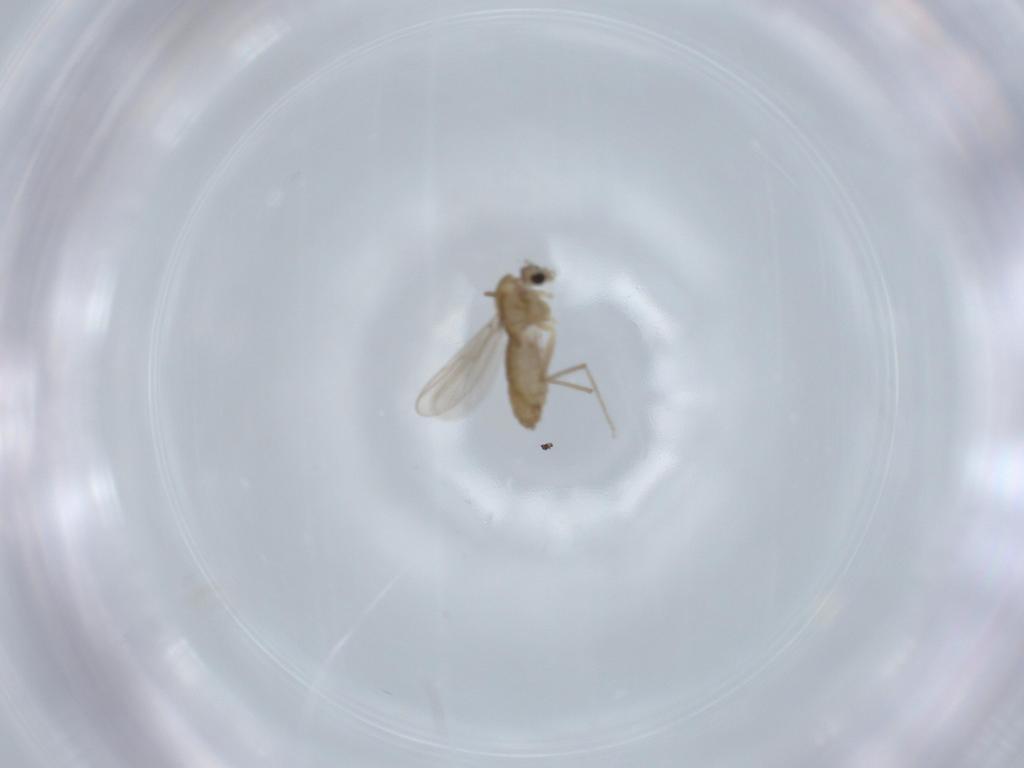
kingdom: Animalia
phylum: Arthropoda
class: Insecta
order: Diptera
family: Chironomidae
